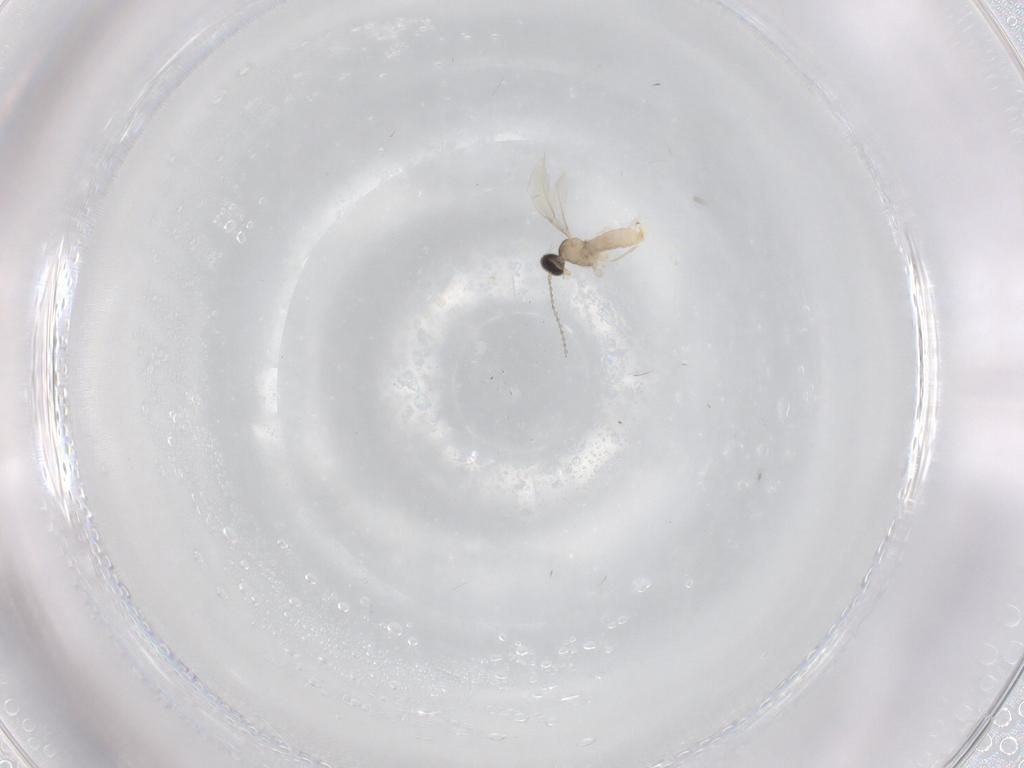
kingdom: Animalia
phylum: Arthropoda
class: Insecta
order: Diptera
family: Cecidomyiidae
